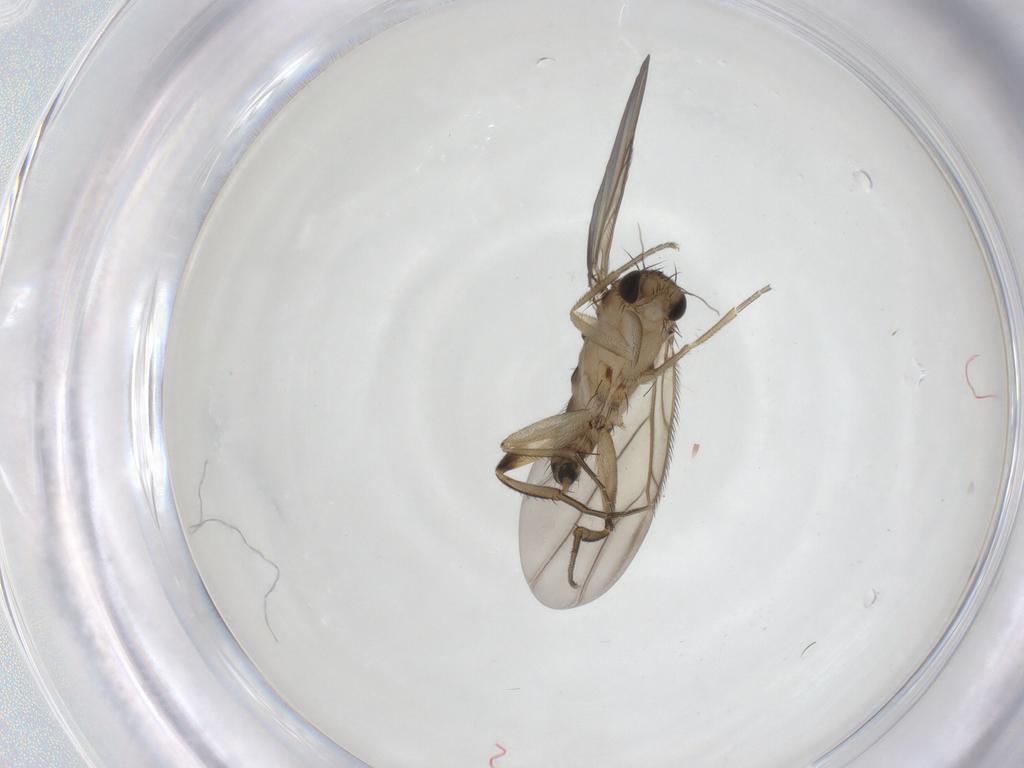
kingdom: Animalia
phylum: Arthropoda
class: Insecta
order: Diptera
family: Phoridae
